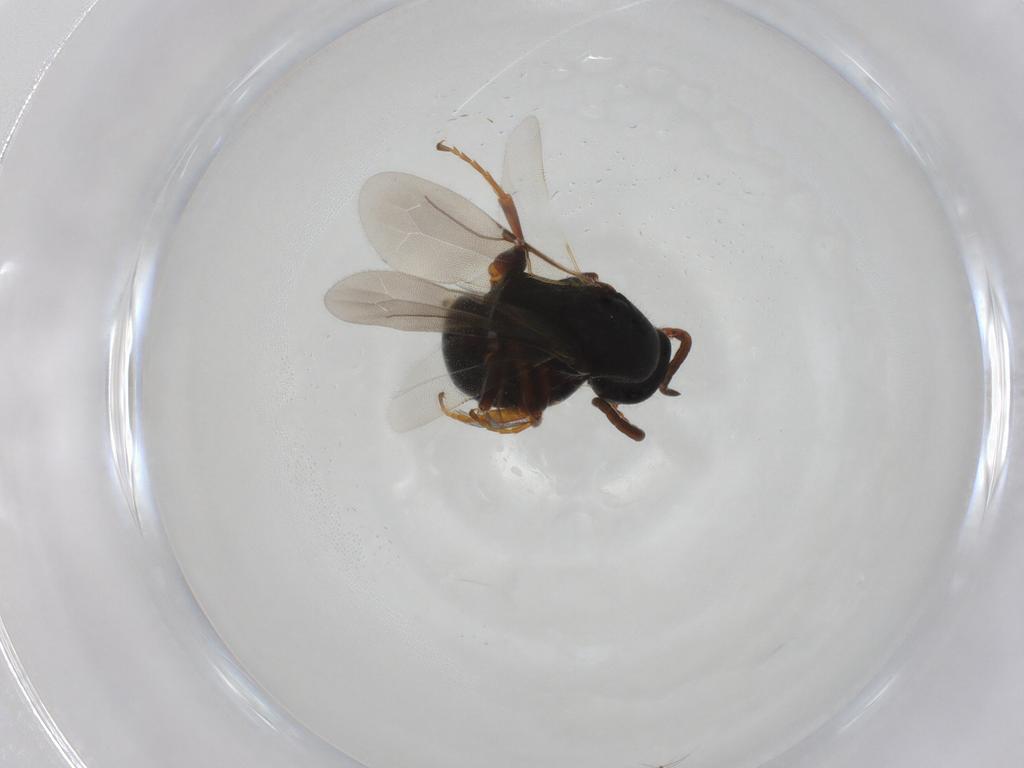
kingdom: Animalia
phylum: Arthropoda
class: Insecta
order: Hymenoptera
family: Bethylidae
